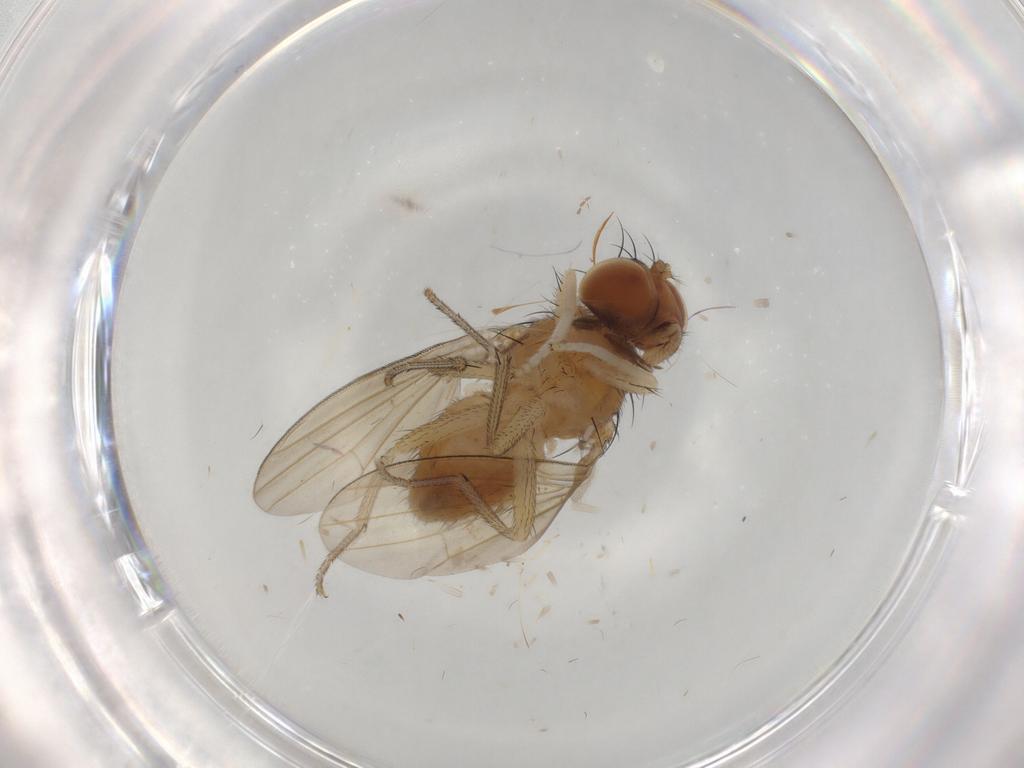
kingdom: Animalia
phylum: Arthropoda
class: Insecta
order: Diptera
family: Lauxaniidae
